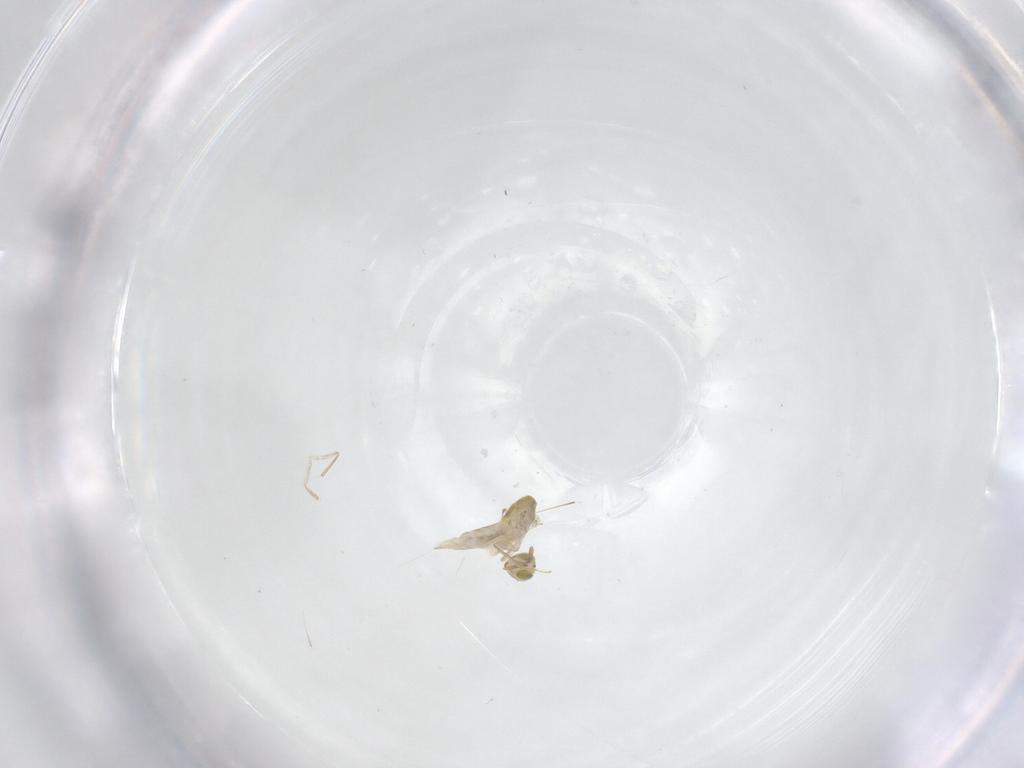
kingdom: Animalia
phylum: Arthropoda
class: Insecta
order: Hymenoptera
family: Aphelinidae
